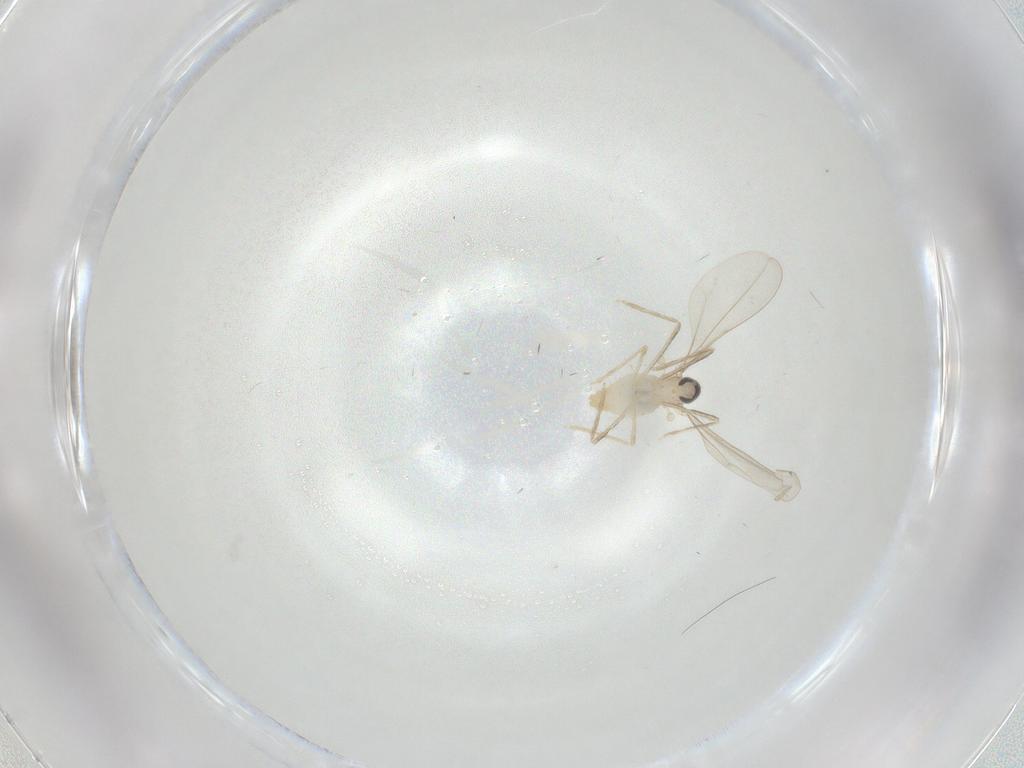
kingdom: Animalia
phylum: Arthropoda
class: Insecta
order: Diptera
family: Cecidomyiidae
